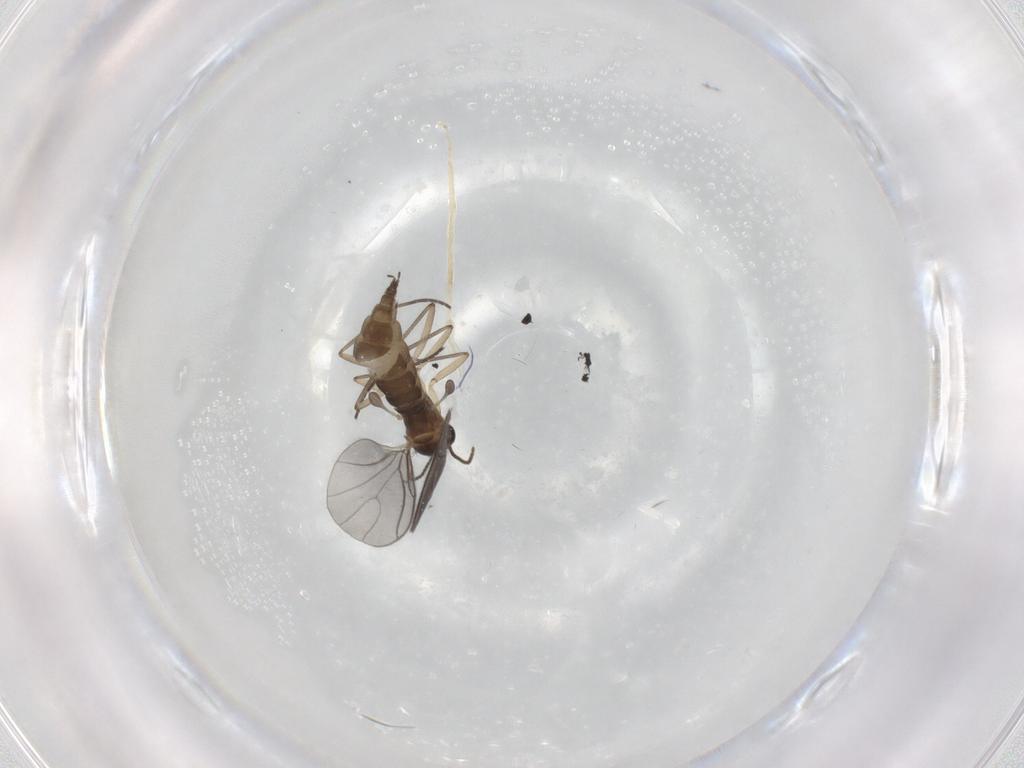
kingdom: Animalia
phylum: Arthropoda
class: Insecta
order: Diptera
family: Sciaridae
